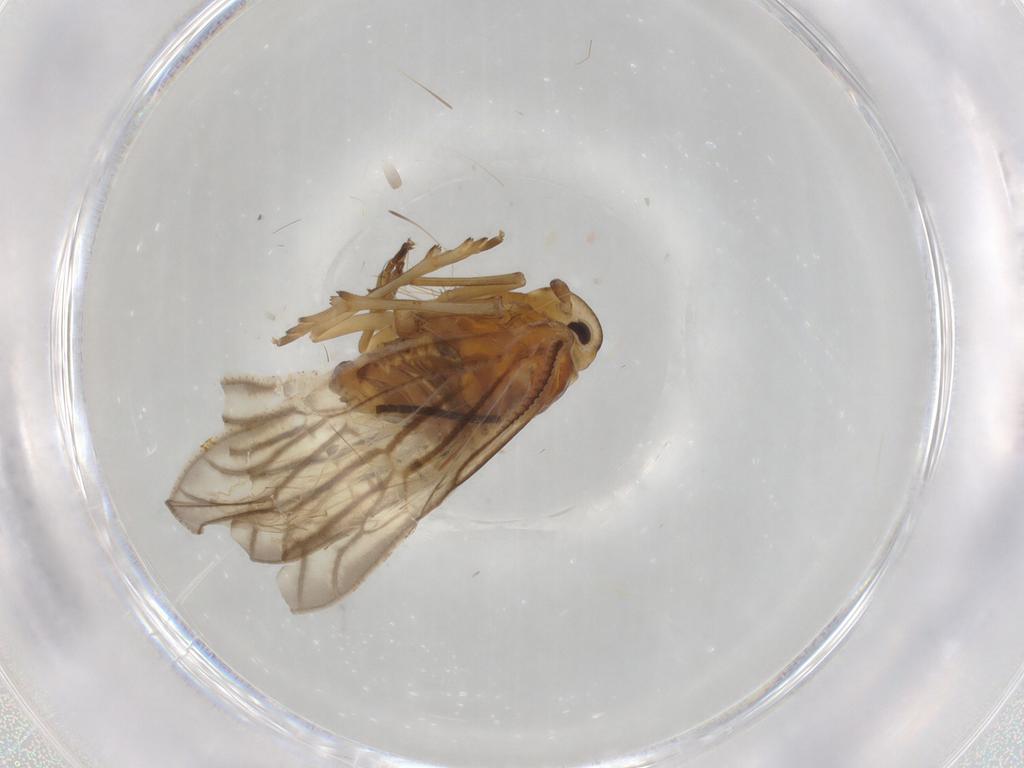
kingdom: Animalia
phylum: Arthropoda
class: Insecta
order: Hemiptera
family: Meenoplidae
